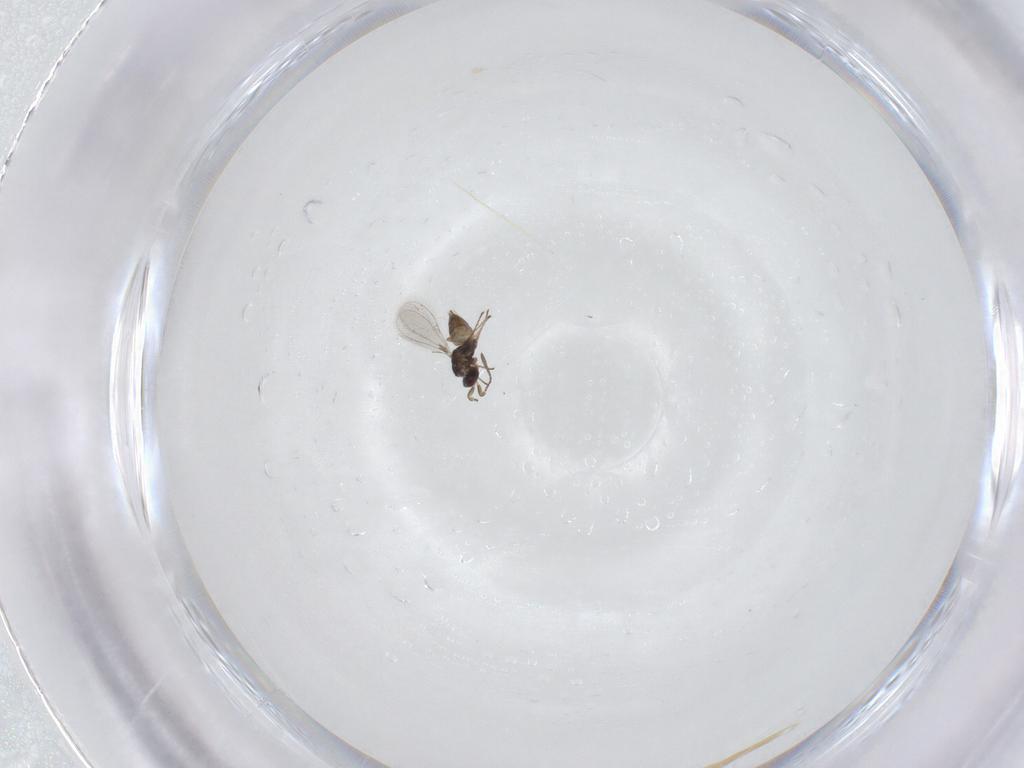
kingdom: Animalia
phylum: Arthropoda
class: Insecta
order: Hymenoptera
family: Mymaridae
